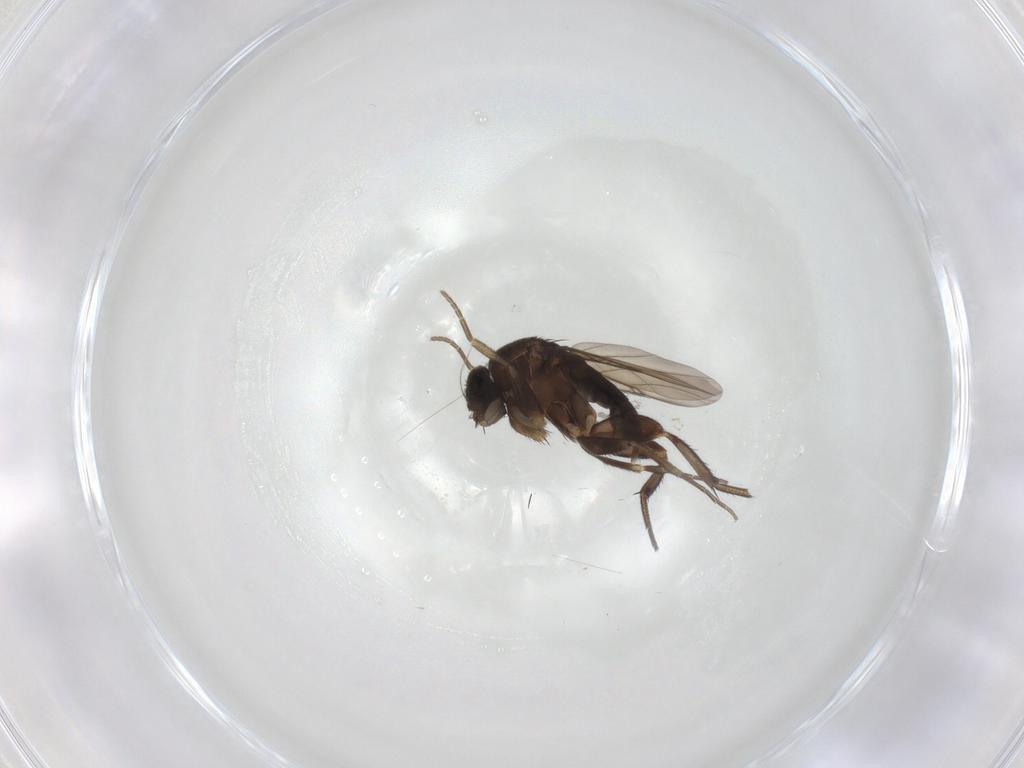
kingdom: Animalia
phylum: Arthropoda
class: Insecta
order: Diptera
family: Phoridae
